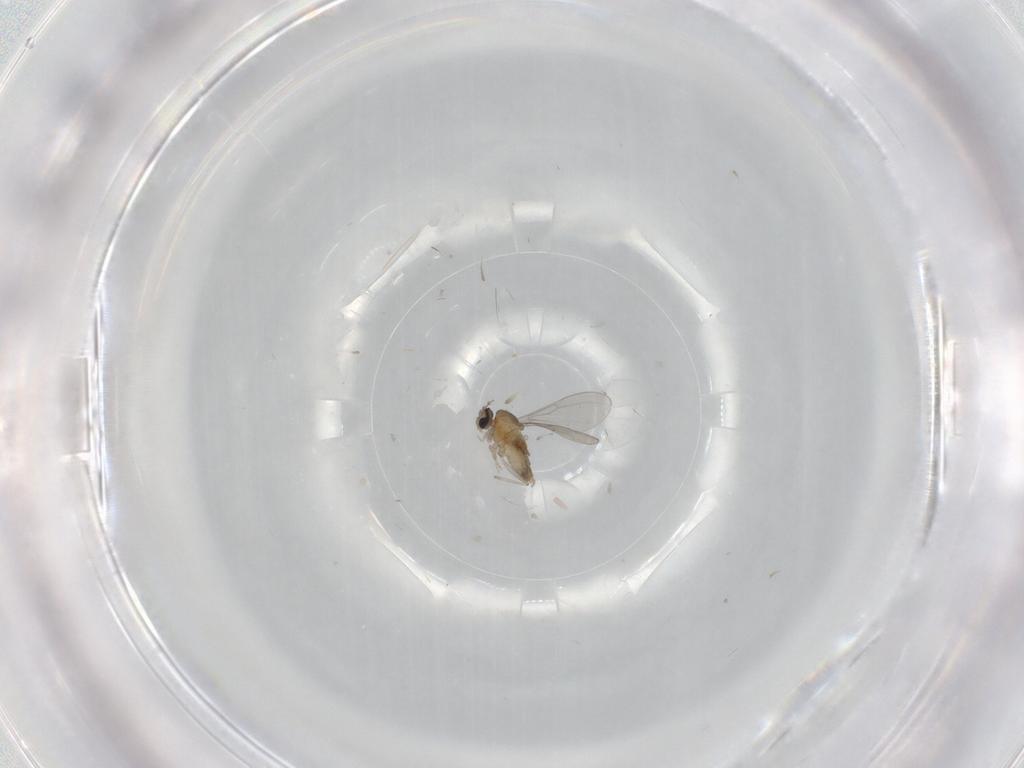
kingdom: Animalia
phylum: Arthropoda
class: Insecta
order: Diptera
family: Cecidomyiidae
